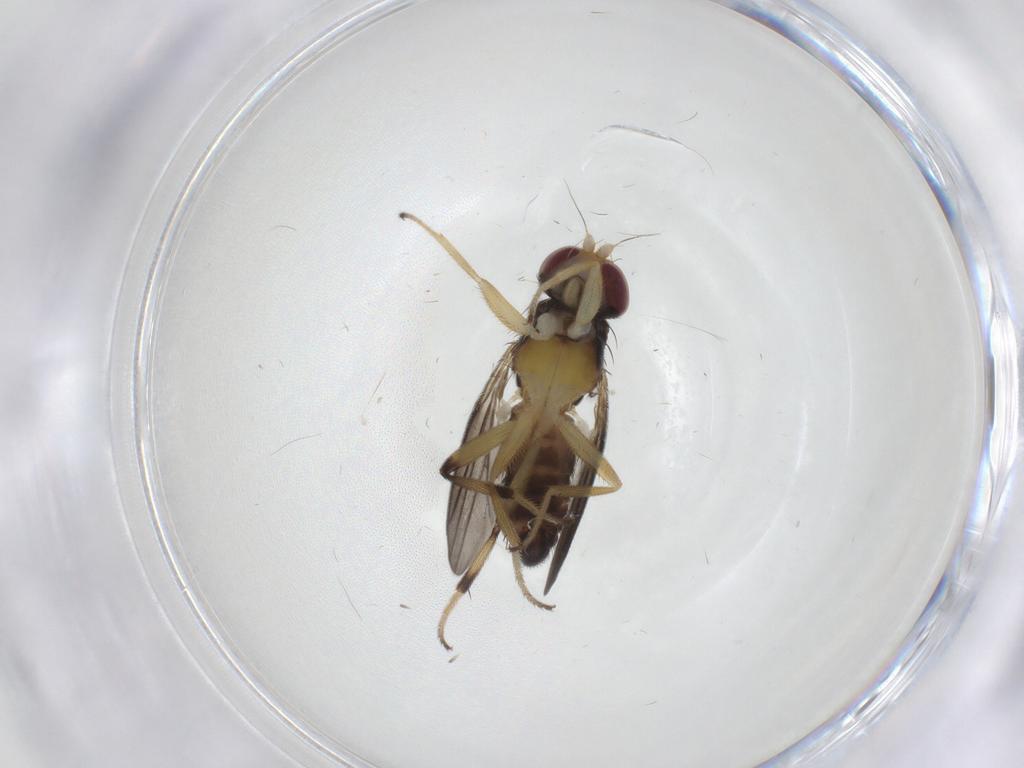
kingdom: Animalia
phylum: Arthropoda
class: Insecta
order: Diptera
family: Clusiidae
